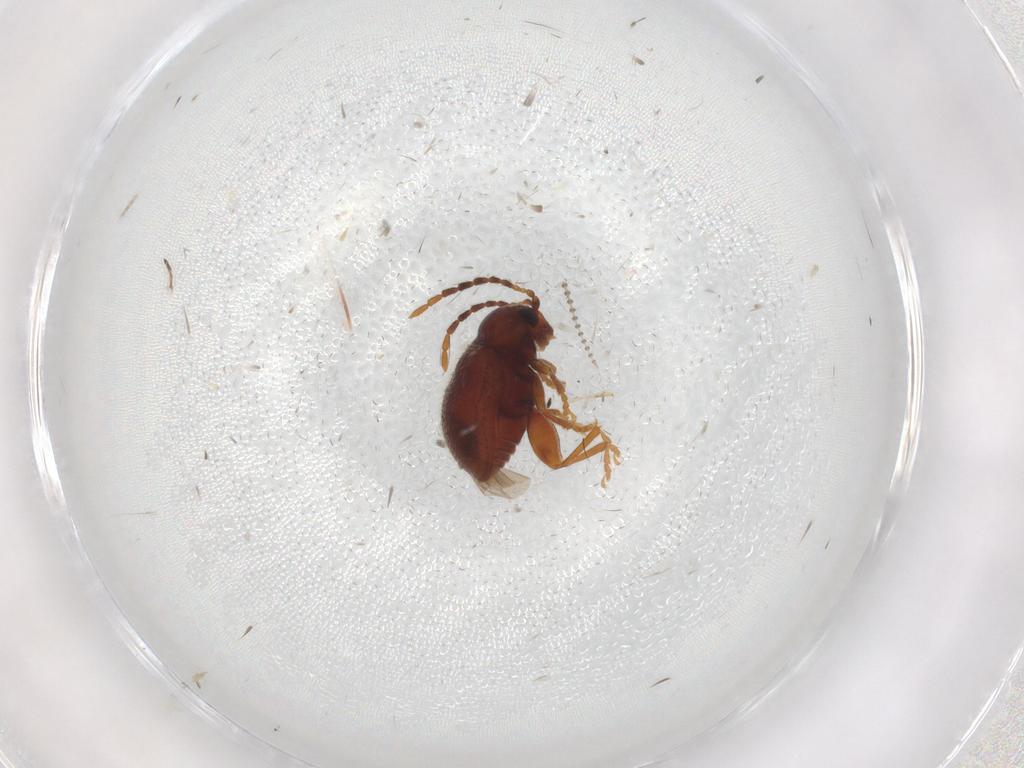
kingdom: Animalia
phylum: Arthropoda
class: Insecta
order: Coleoptera
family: Chrysomelidae
